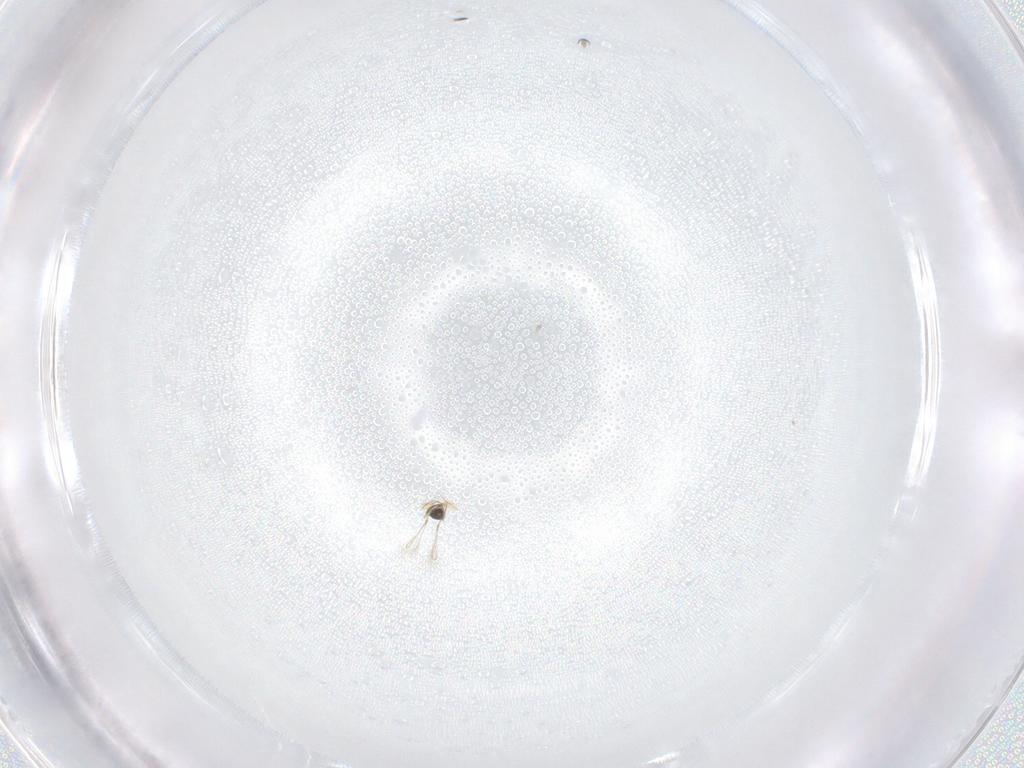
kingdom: Animalia
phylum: Arthropoda
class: Insecta
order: Hymenoptera
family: Mymaridae
